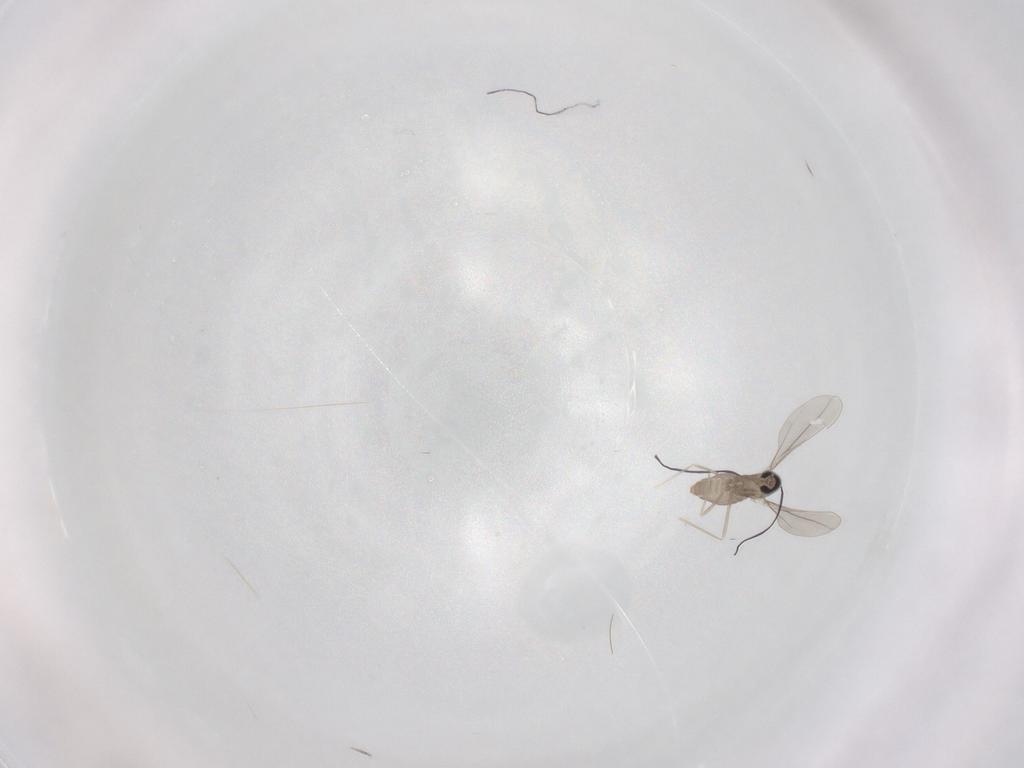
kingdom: Animalia
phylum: Arthropoda
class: Insecta
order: Diptera
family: Cecidomyiidae
